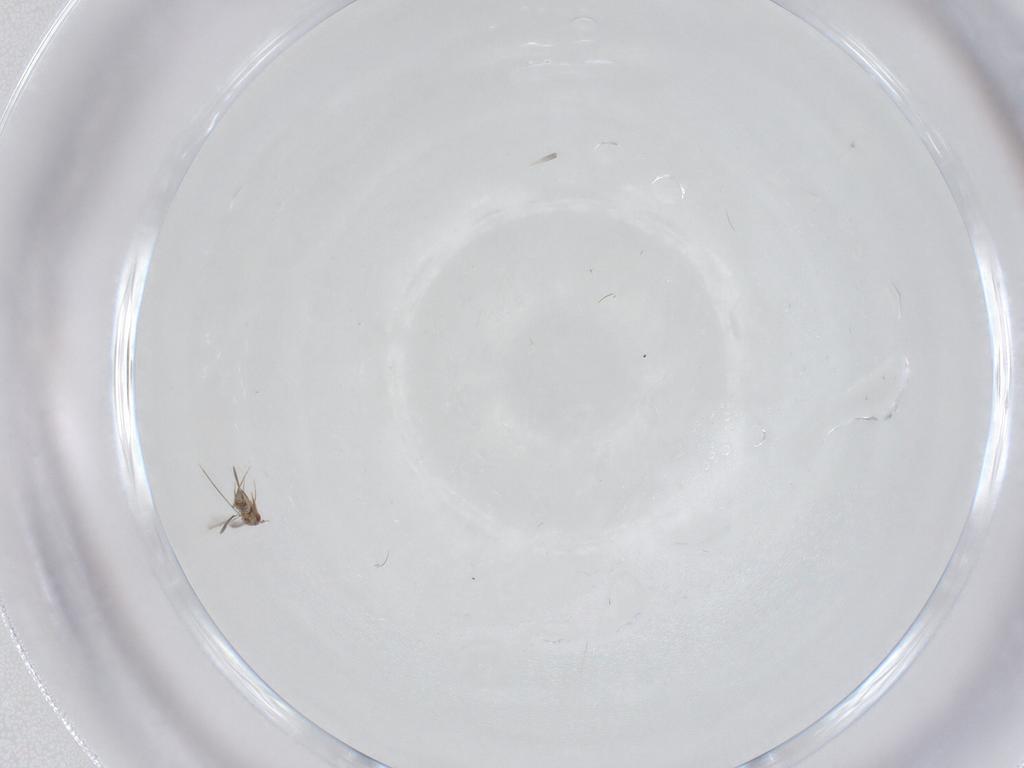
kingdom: Animalia
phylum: Arthropoda
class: Insecta
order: Hymenoptera
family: Mymaridae
